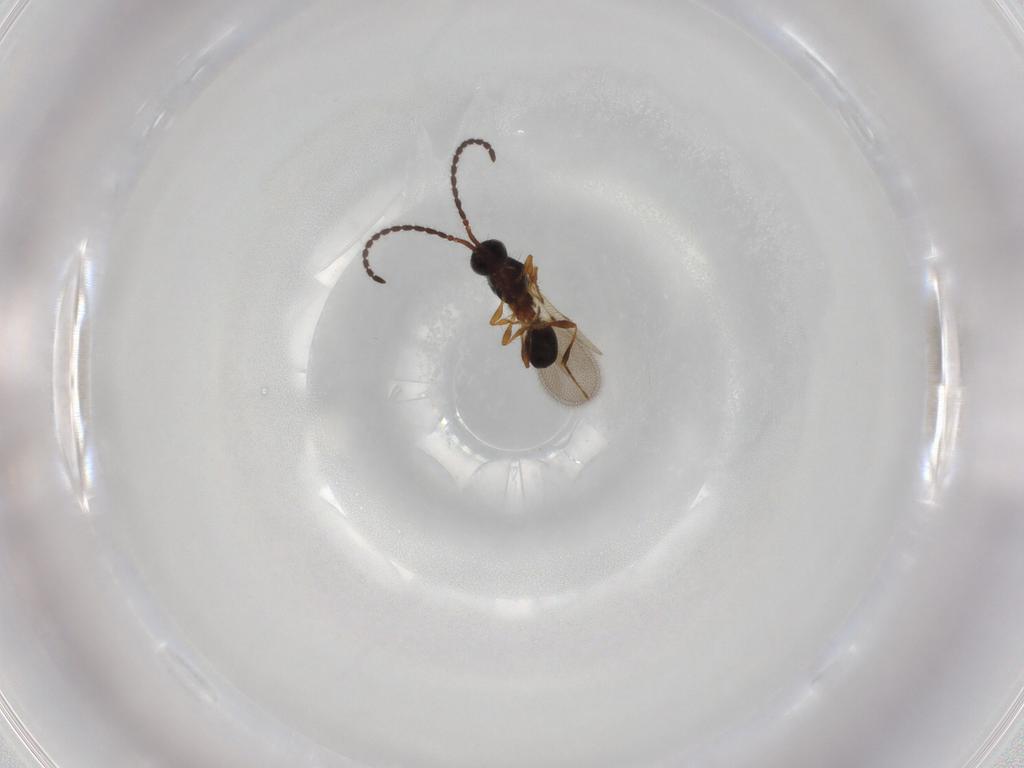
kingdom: Animalia
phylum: Arthropoda
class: Insecta
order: Hymenoptera
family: Diapriidae
